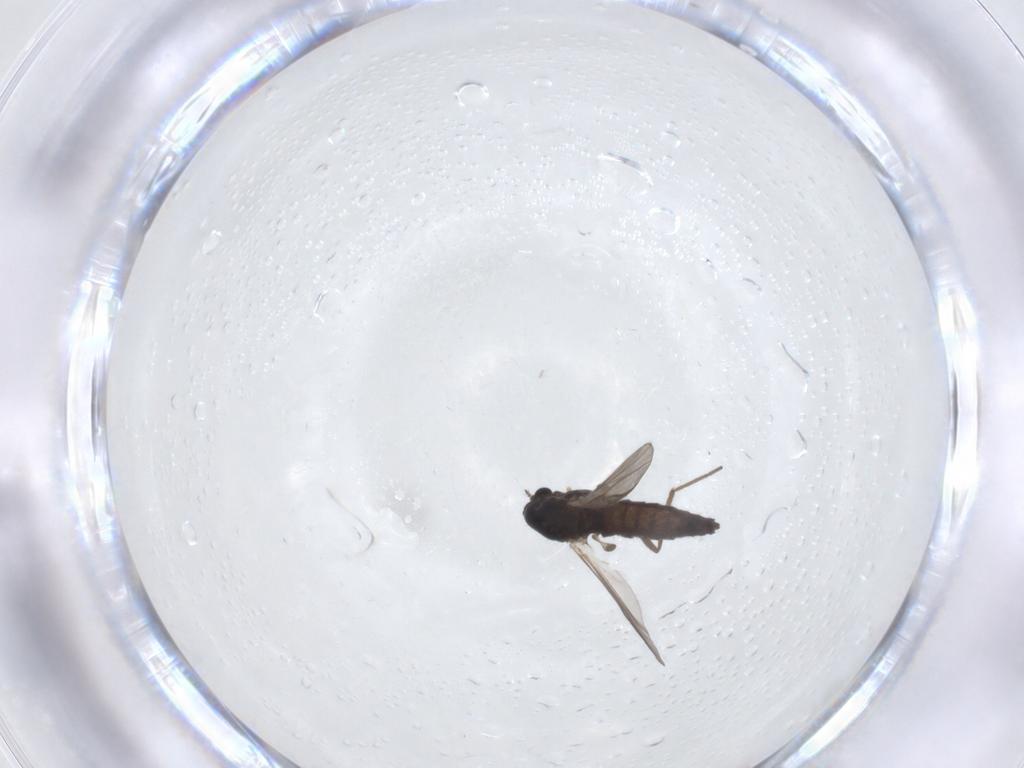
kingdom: Animalia
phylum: Arthropoda
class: Insecta
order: Diptera
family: Chironomidae
